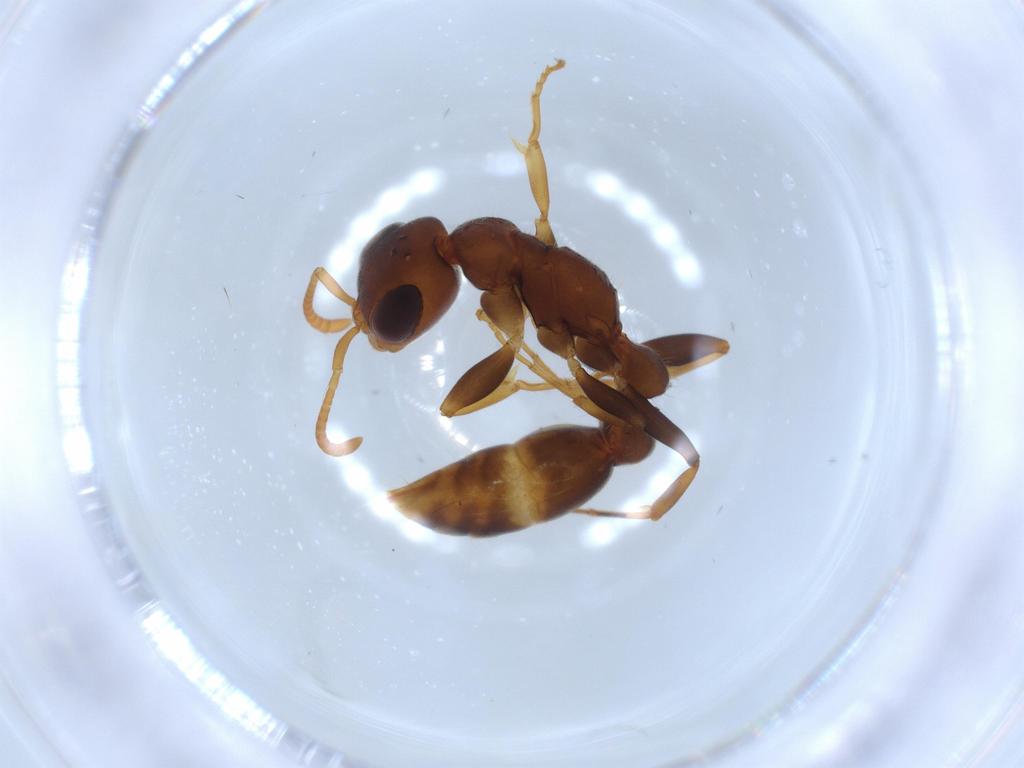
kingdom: Animalia
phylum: Arthropoda
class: Insecta
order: Hymenoptera
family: Formicidae
